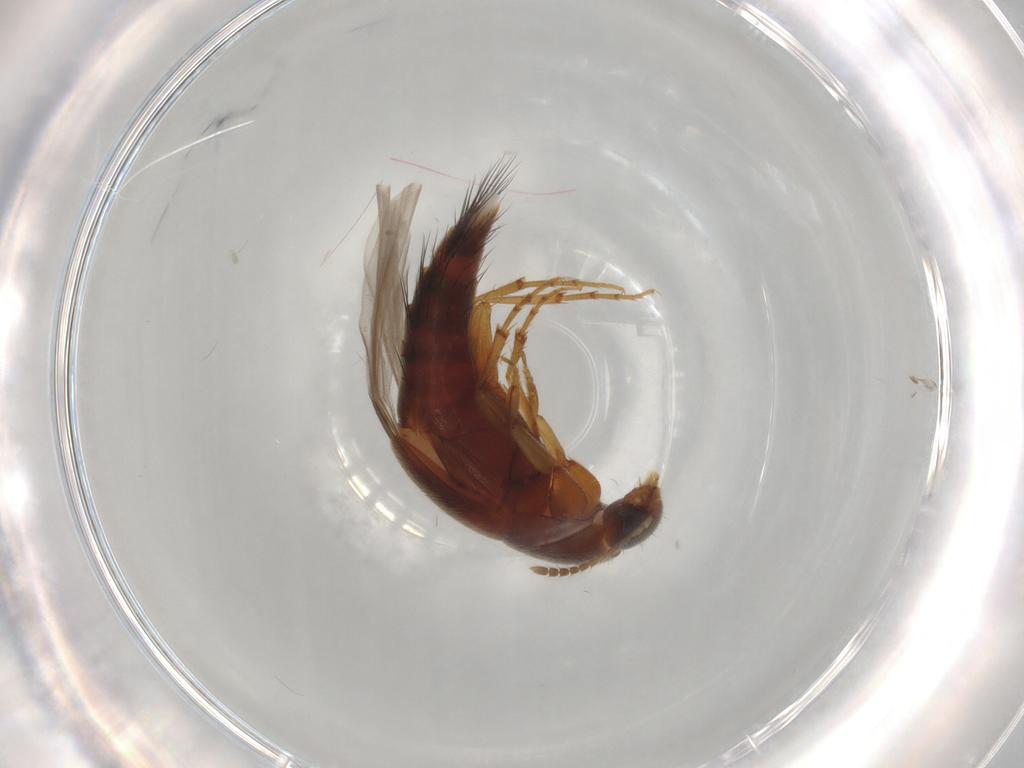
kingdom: Animalia
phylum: Arthropoda
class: Insecta
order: Coleoptera
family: Staphylinidae
